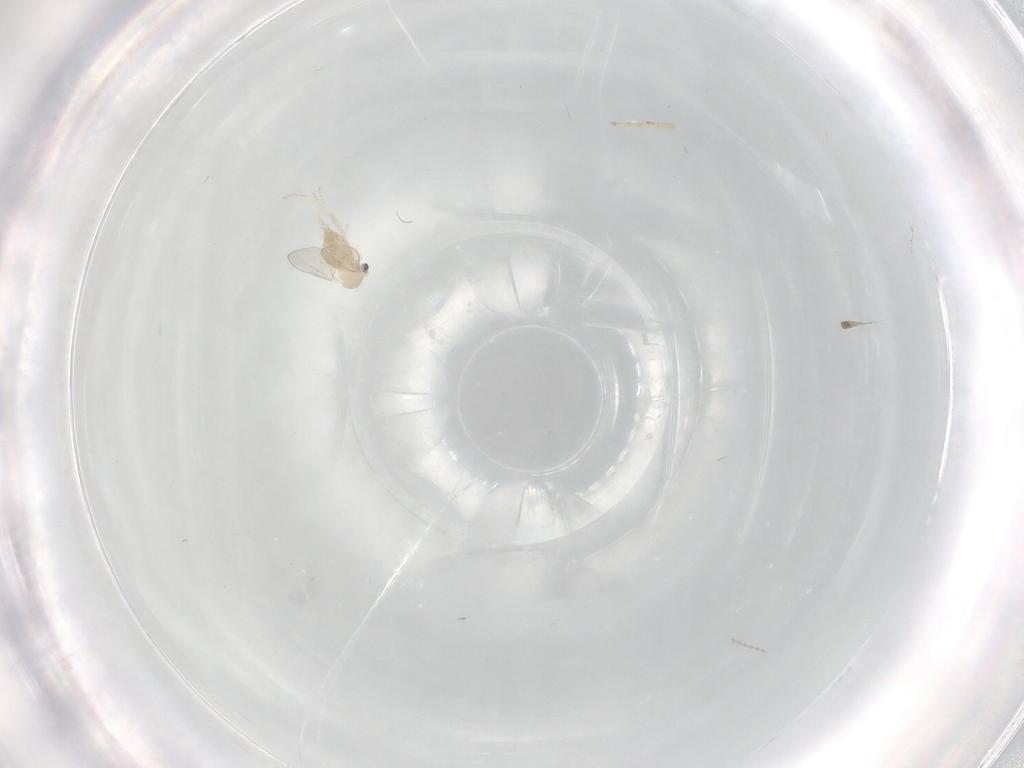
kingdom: Animalia
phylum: Arthropoda
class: Insecta
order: Diptera
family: Cecidomyiidae
